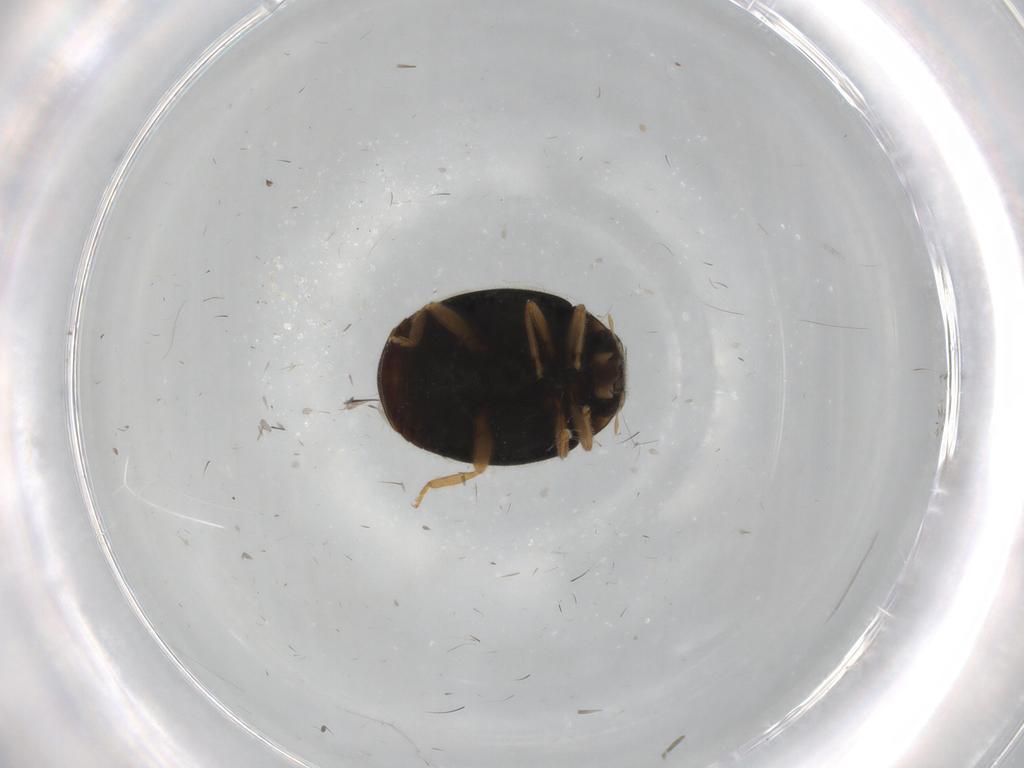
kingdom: Animalia
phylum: Arthropoda
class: Insecta
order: Coleoptera
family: Coccinellidae
